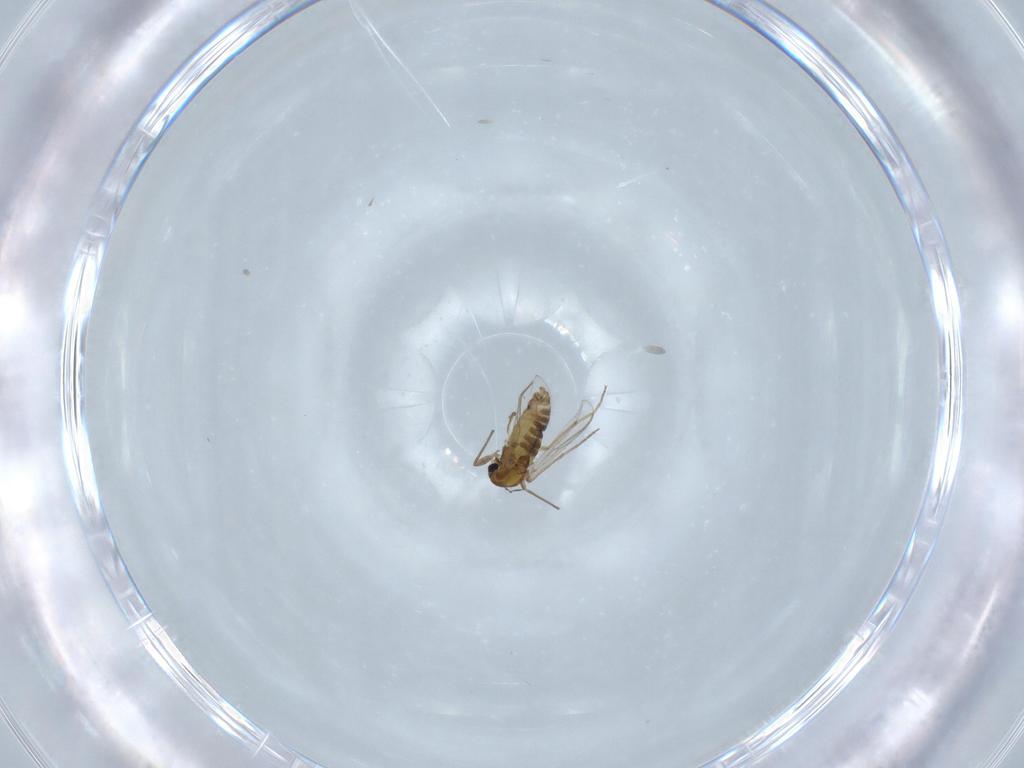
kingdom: Animalia
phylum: Arthropoda
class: Insecta
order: Diptera
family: Chironomidae
